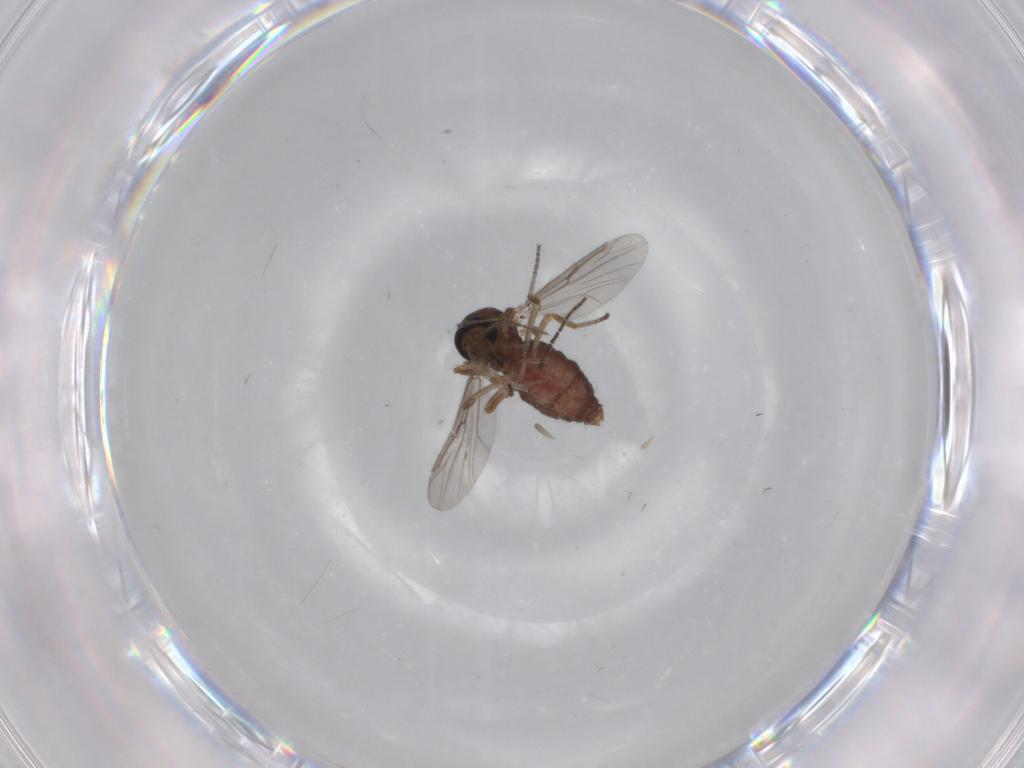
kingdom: Animalia
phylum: Arthropoda
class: Insecta
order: Diptera
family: Ceratopogonidae
